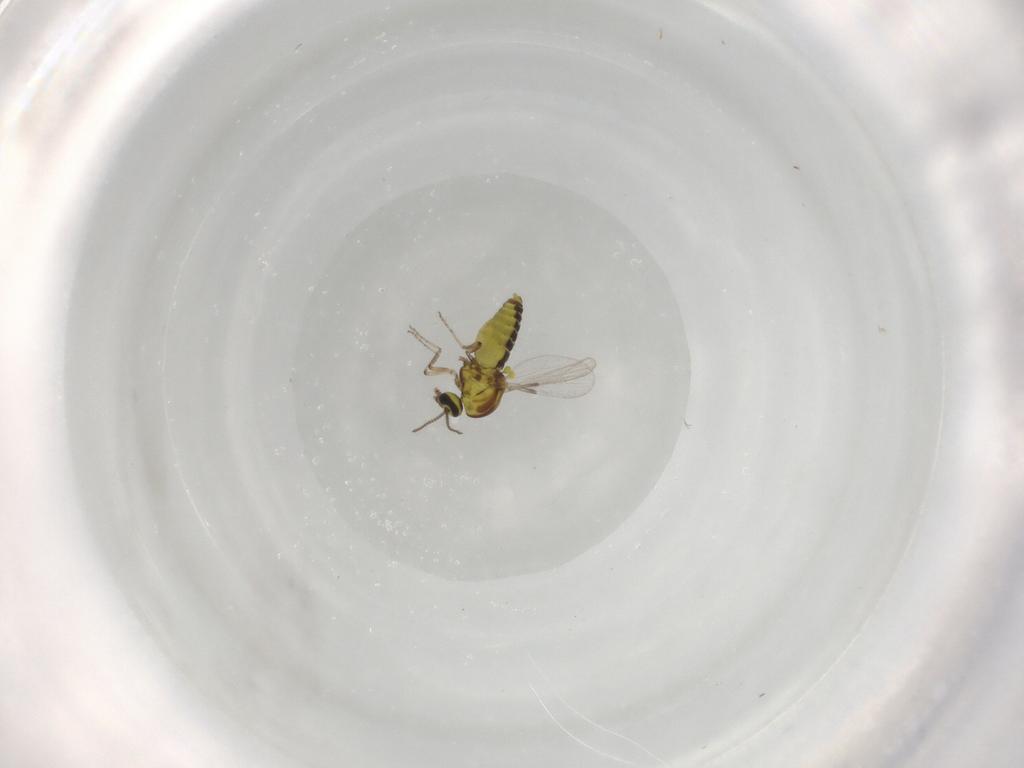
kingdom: Animalia
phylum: Arthropoda
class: Insecta
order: Diptera
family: Ceratopogonidae
